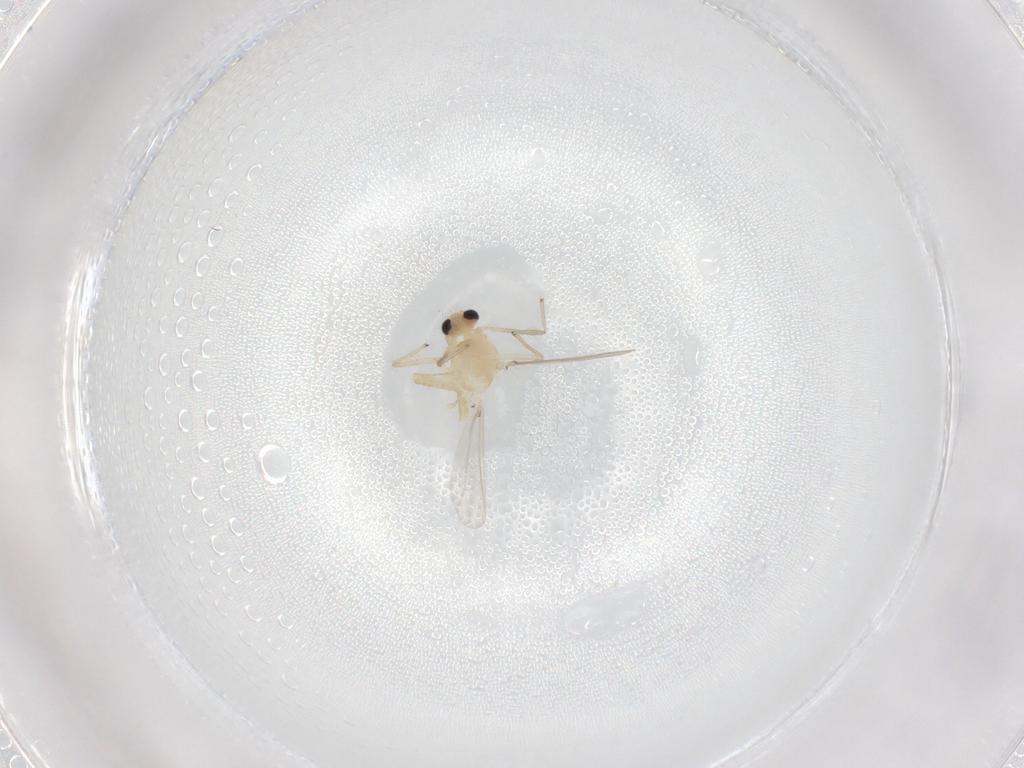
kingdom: Animalia
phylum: Arthropoda
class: Insecta
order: Diptera
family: Chironomidae
